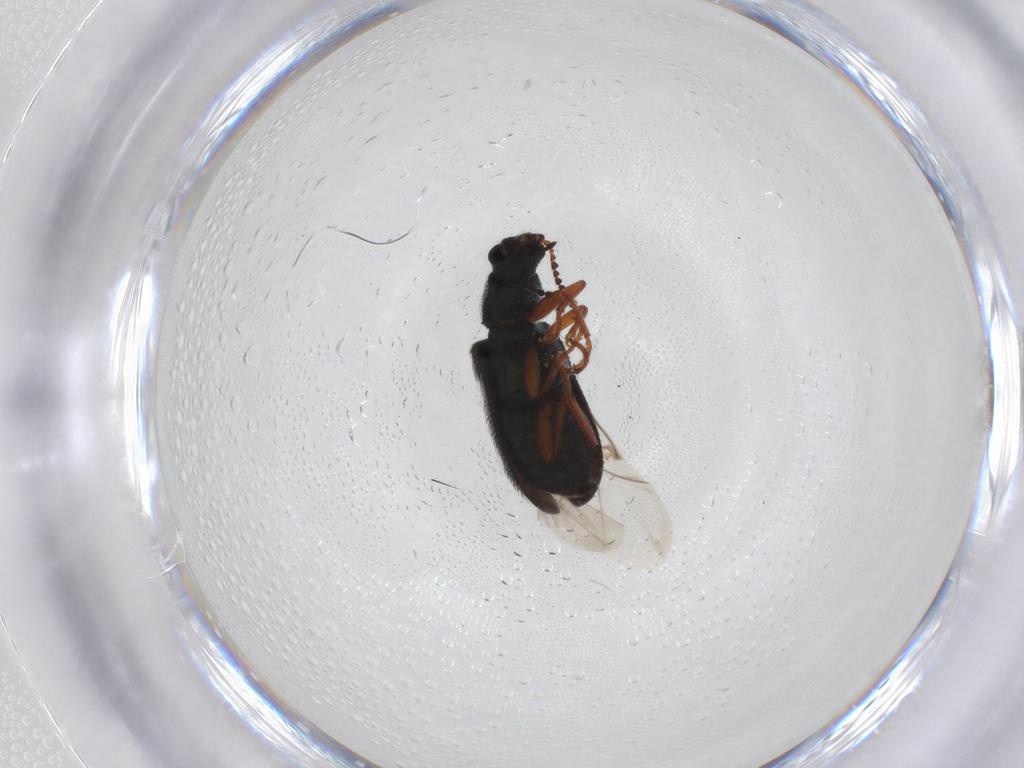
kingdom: Animalia
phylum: Arthropoda
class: Insecta
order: Coleoptera
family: Melyridae
